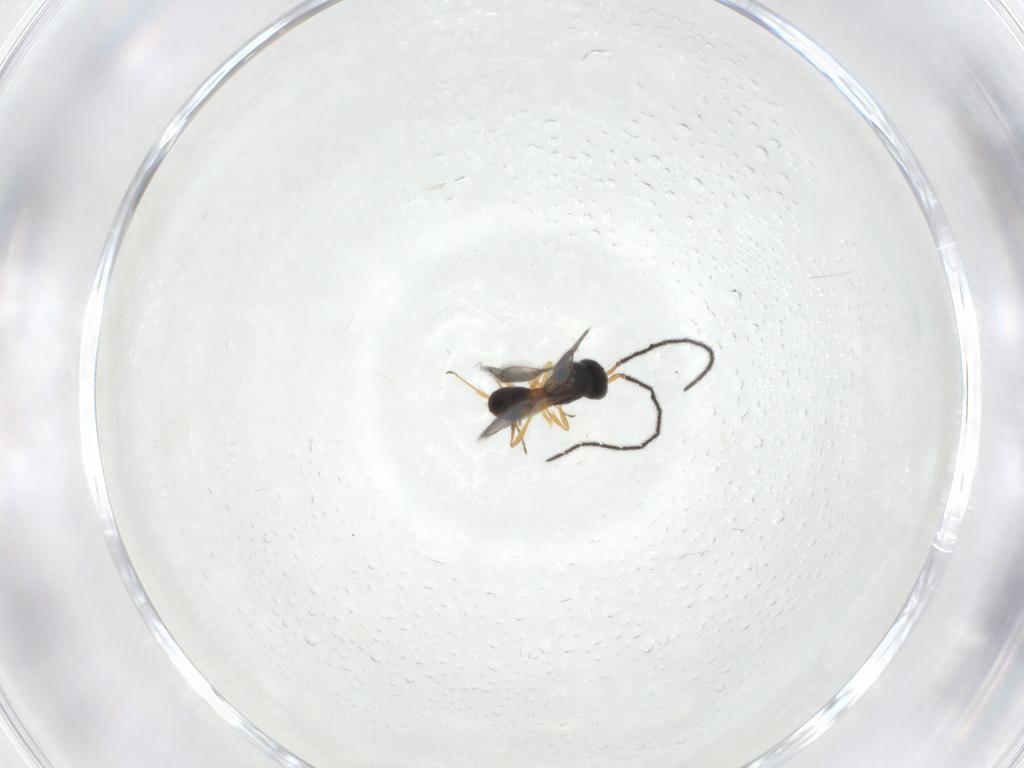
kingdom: Animalia
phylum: Arthropoda
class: Insecta
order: Hymenoptera
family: Scelionidae
